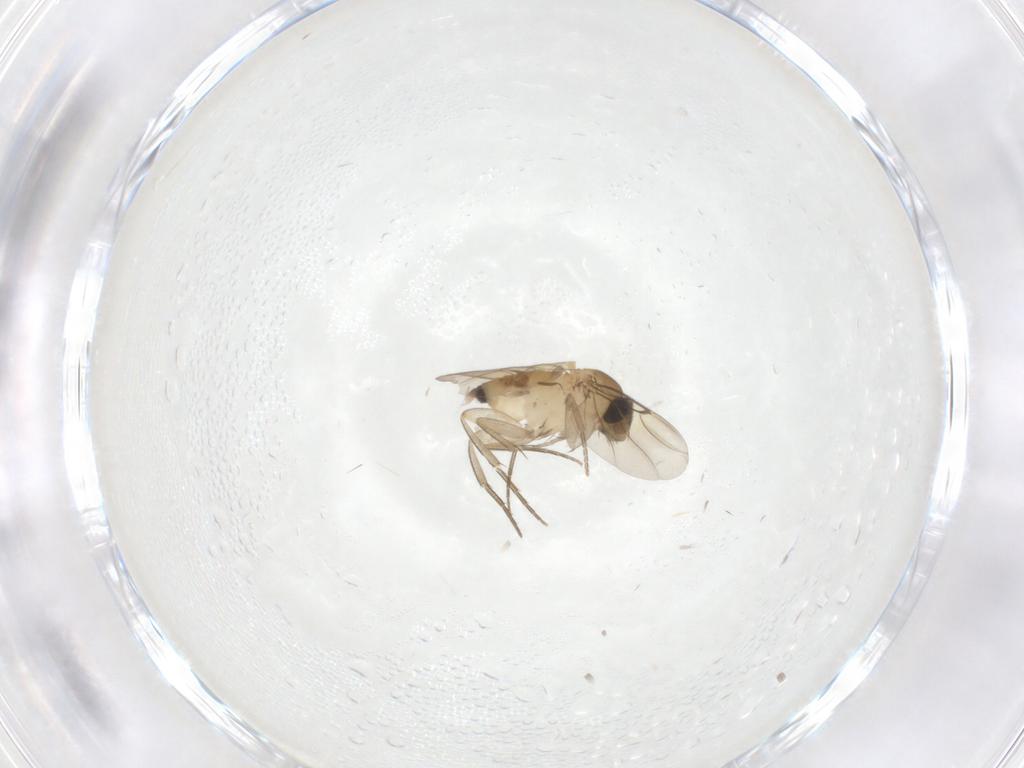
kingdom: Animalia
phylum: Arthropoda
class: Insecta
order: Diptera
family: Phoridae
